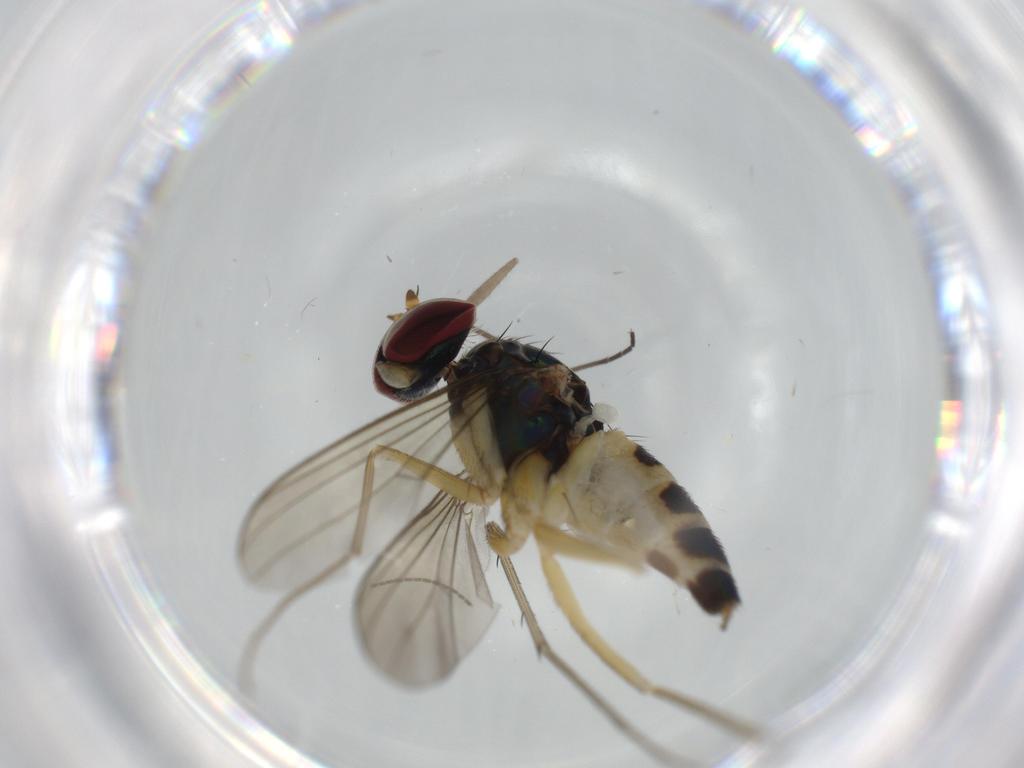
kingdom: Animalia
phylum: Arthropoda
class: Insecta
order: Diptera
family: Dolichopodidae
